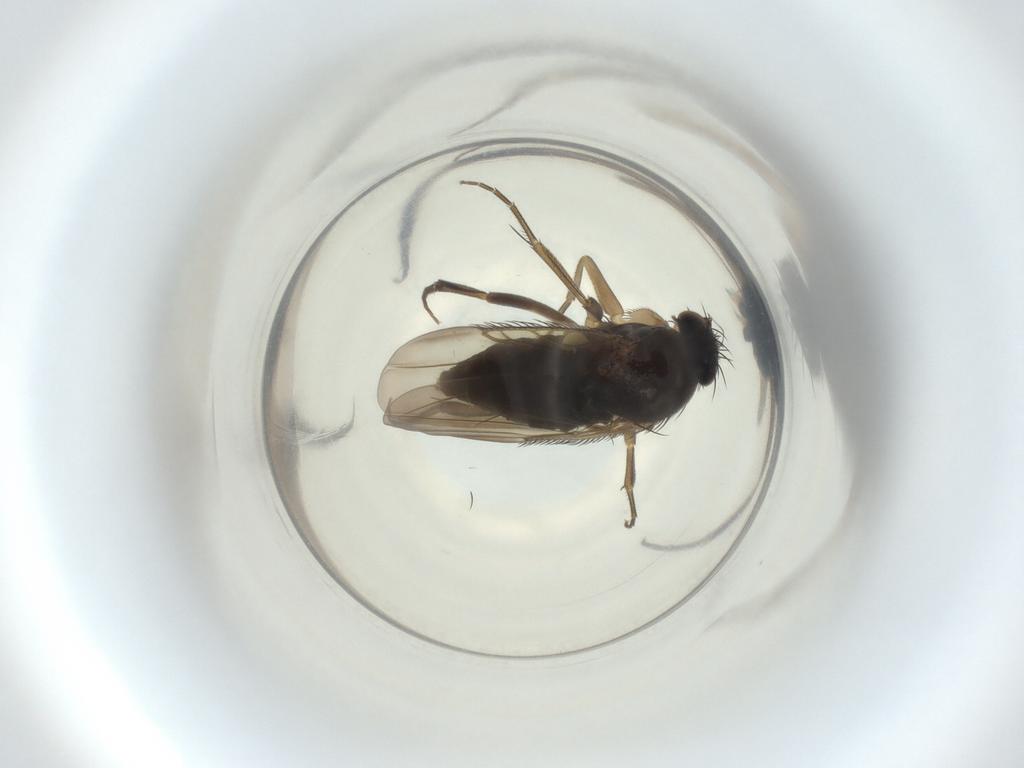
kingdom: Animalia
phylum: Arthropoda
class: Insecta
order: Diptera
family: Phoridae
